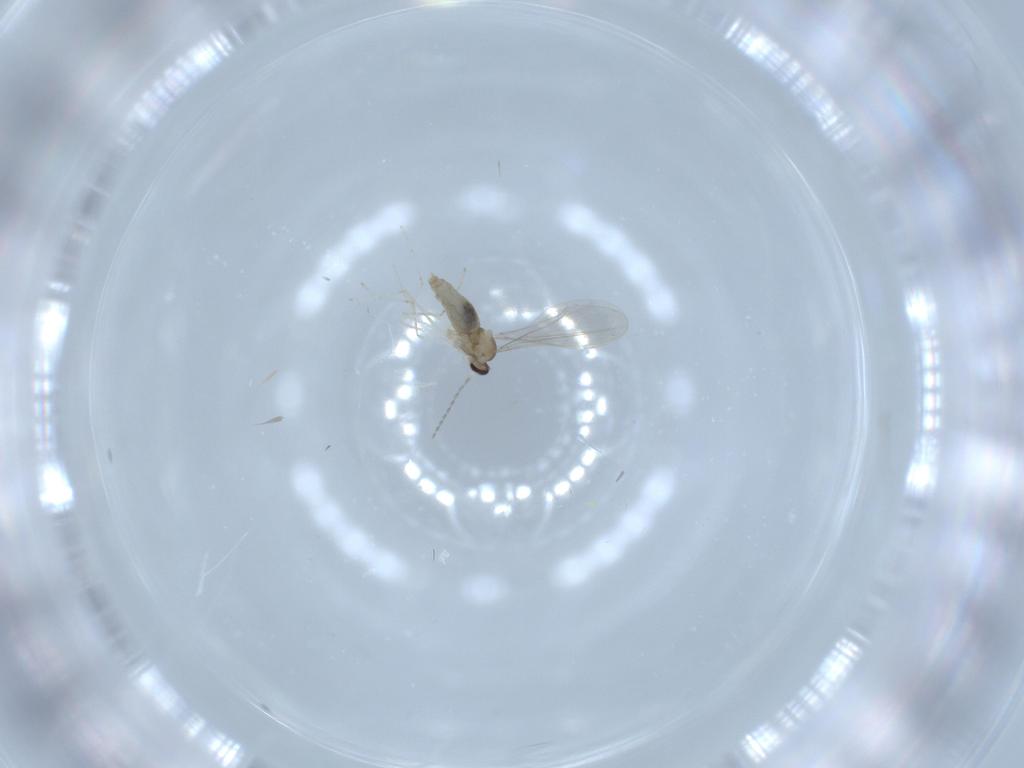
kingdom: Animalia
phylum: Arthropoda
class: Insecta
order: Diptera
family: Cecidomyiidae
